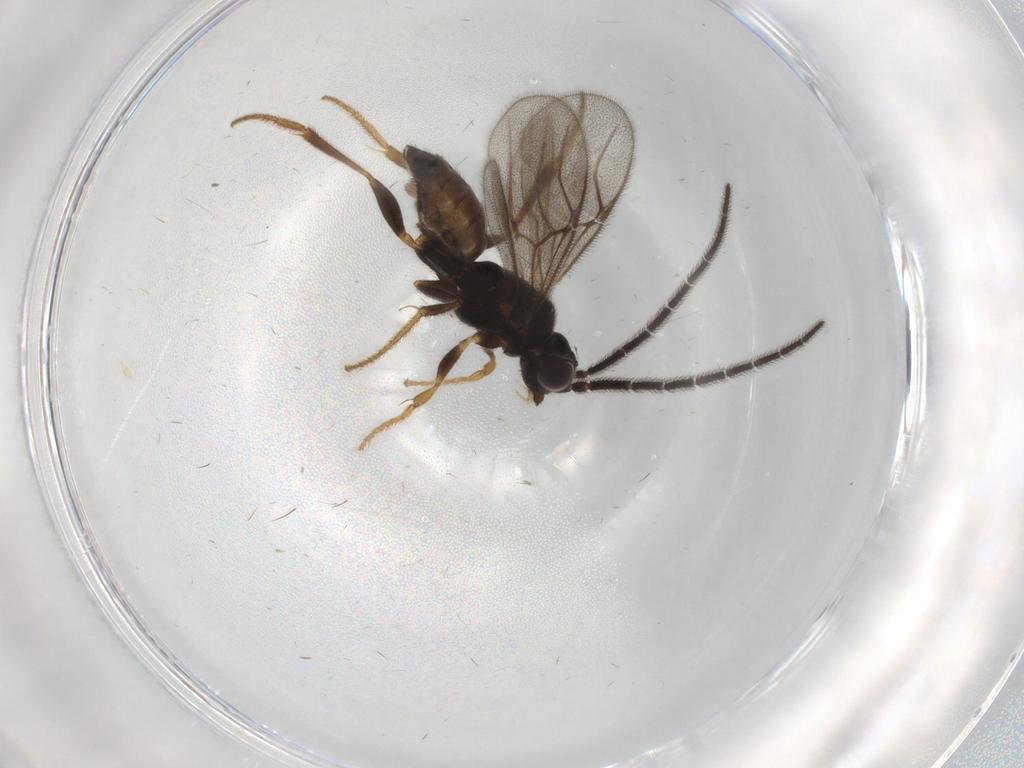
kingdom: Animalia
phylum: Arthropoda
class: Insecta
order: Hymenoptera
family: Dryinidae
